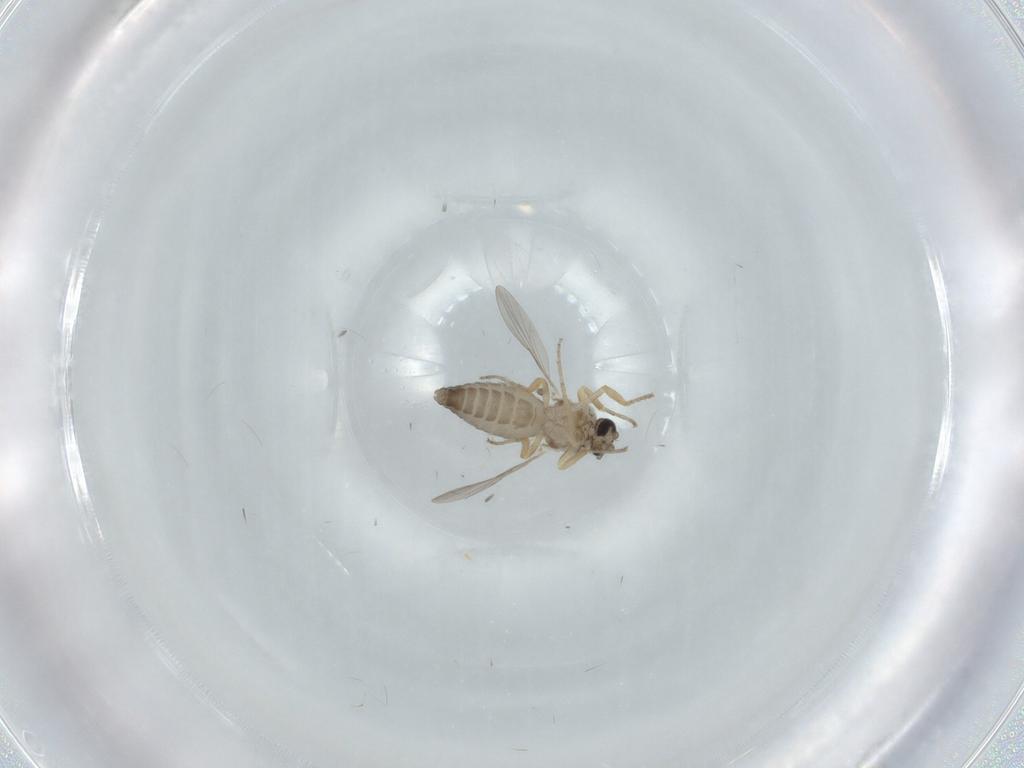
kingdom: Animalia
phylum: Arthropoda
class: Insecta
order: Diptera
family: Ceratopogonidae
